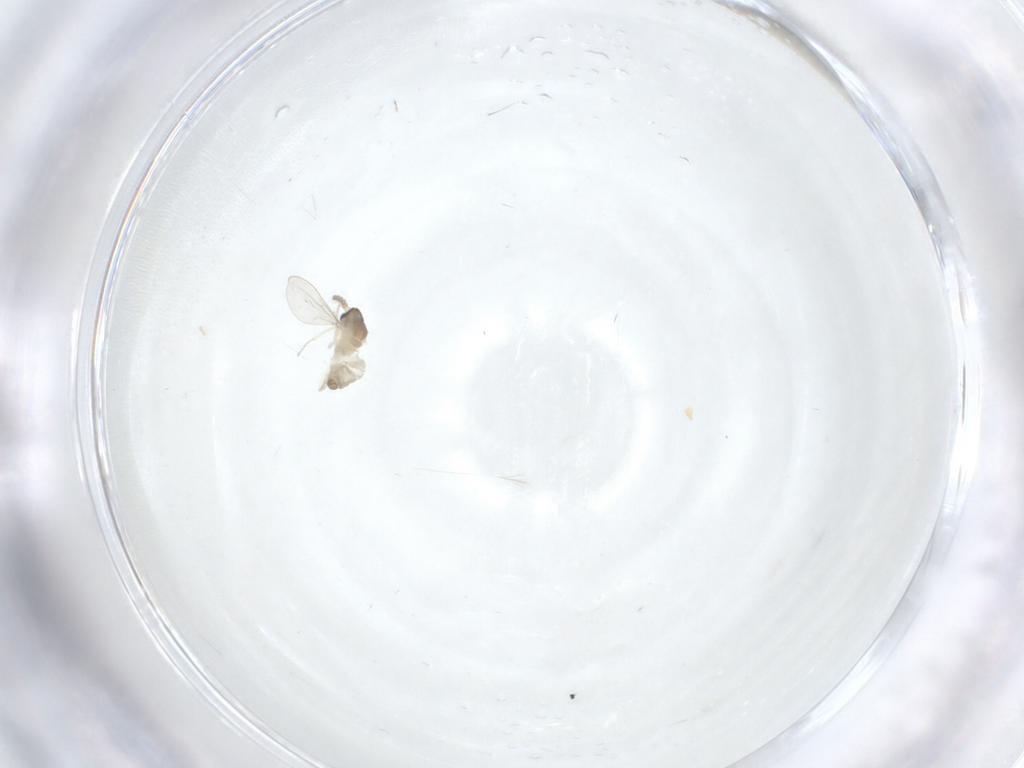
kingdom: Animalia
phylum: Arthropoda
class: Insecta
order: Diptera
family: Cecidomyiidae
